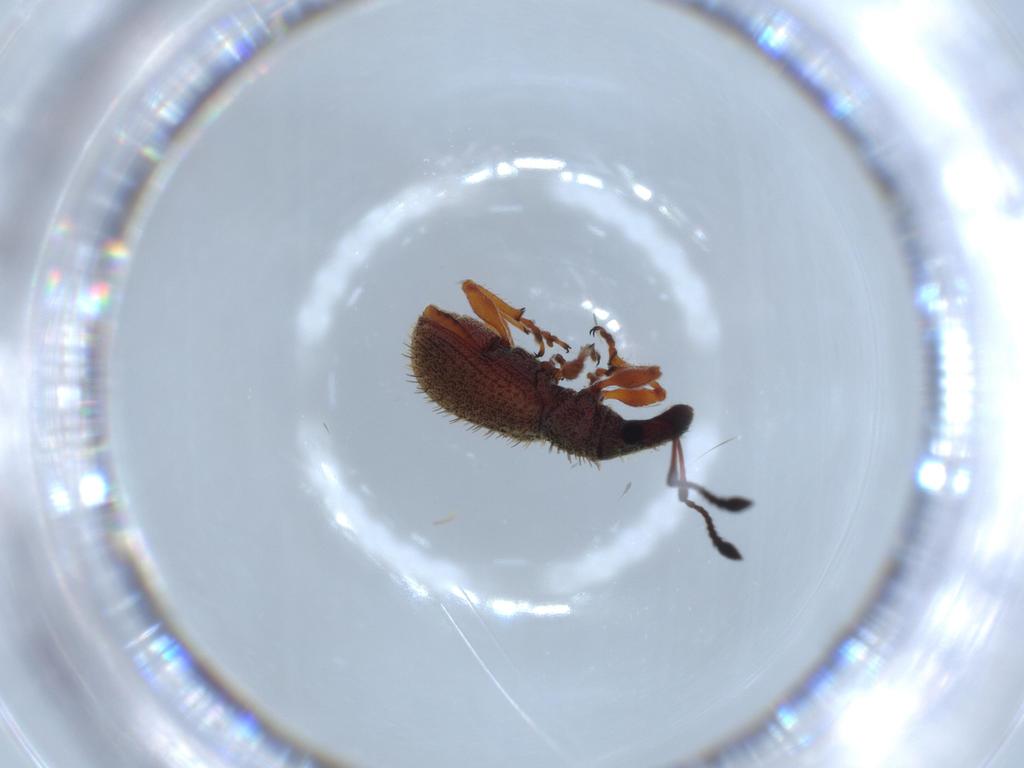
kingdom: Animalia
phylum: Arthropoda
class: Insecta
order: Coleoptera
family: Curculionidae
